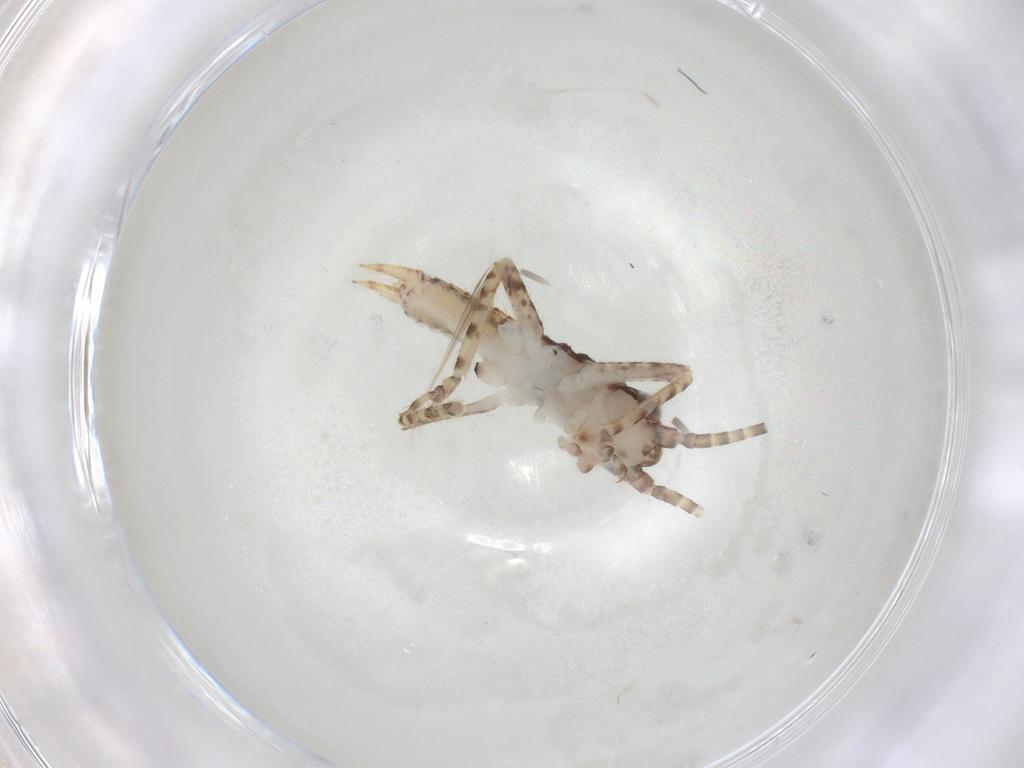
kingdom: Animalia
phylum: Arthropoda
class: Insecta
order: Orthoptera
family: Gryllidae
